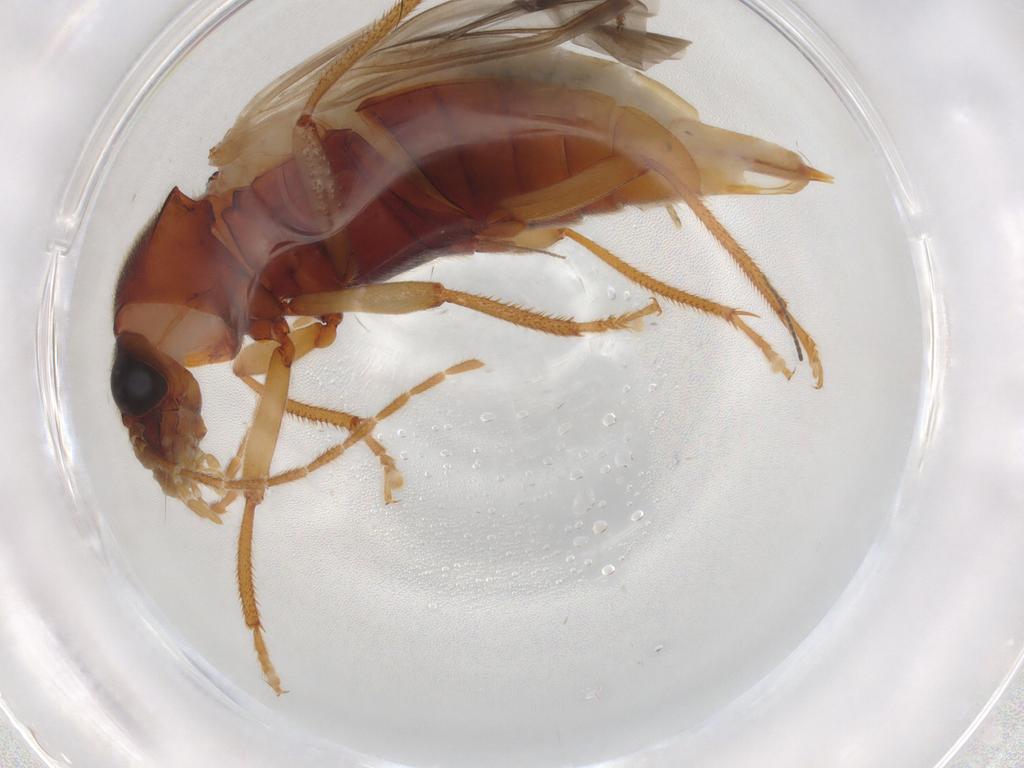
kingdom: Animalia
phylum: Arthropoda
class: Insecta
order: Coleoptera
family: Ptilodactylidae
